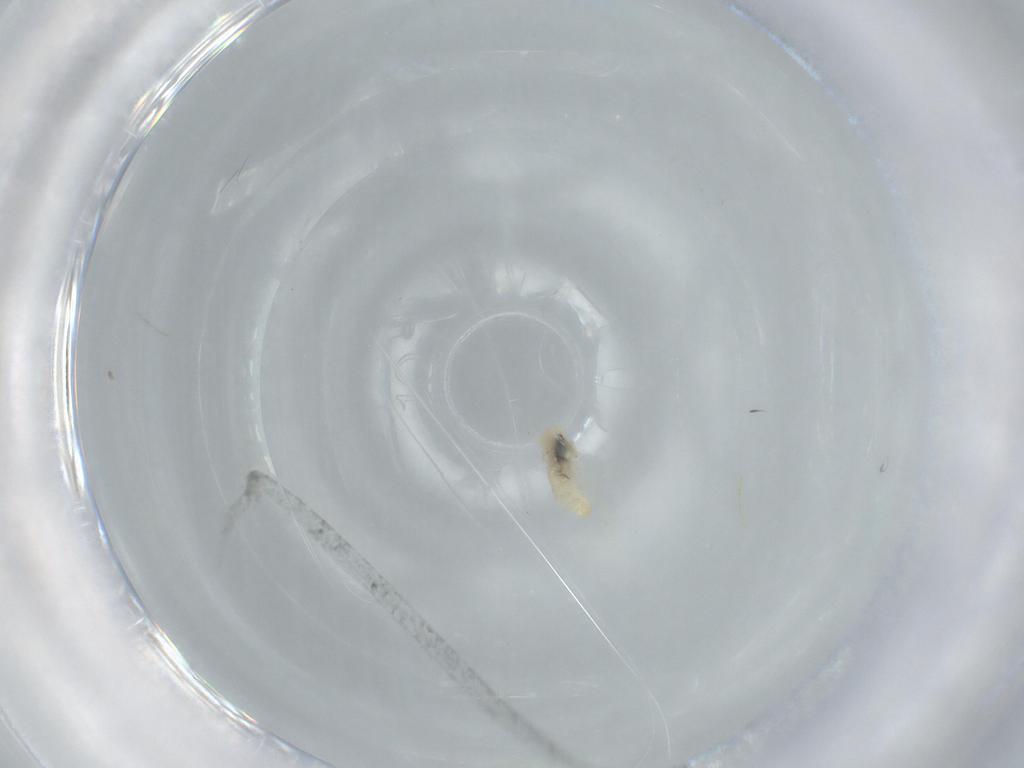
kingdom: Animalia
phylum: Arthropoda
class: Insecta
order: Diptera
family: Cecidomyiidae
